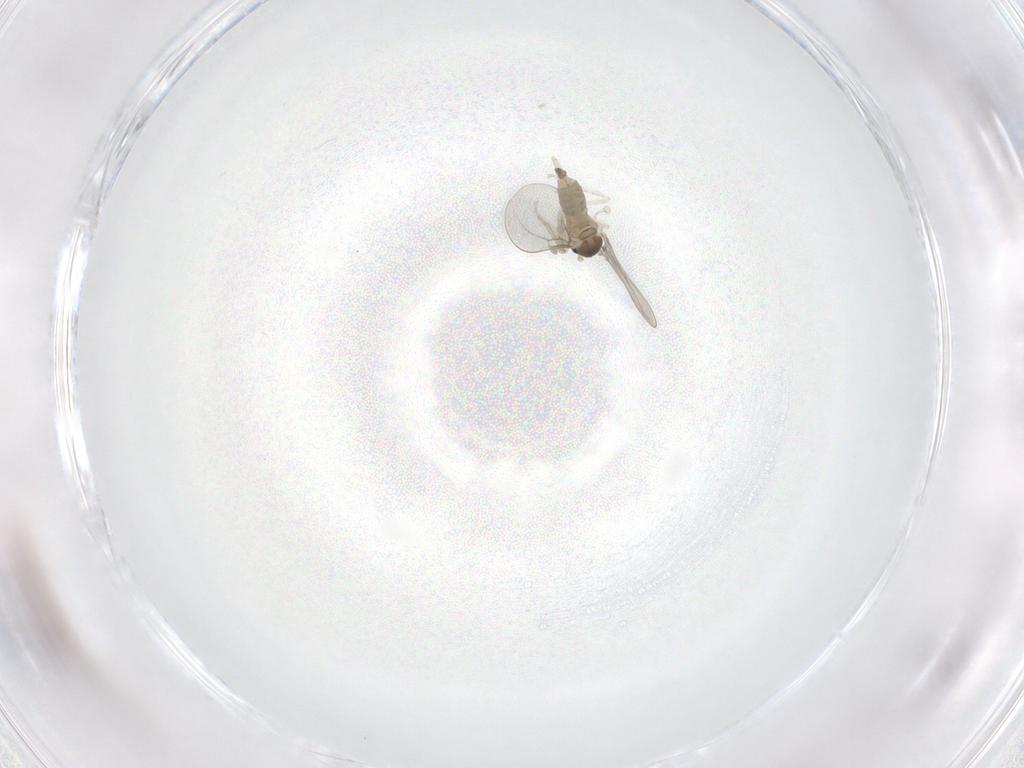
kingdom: Animalia
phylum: Arthropoda
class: Insecta
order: Diptera
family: Cecidomyiidae
